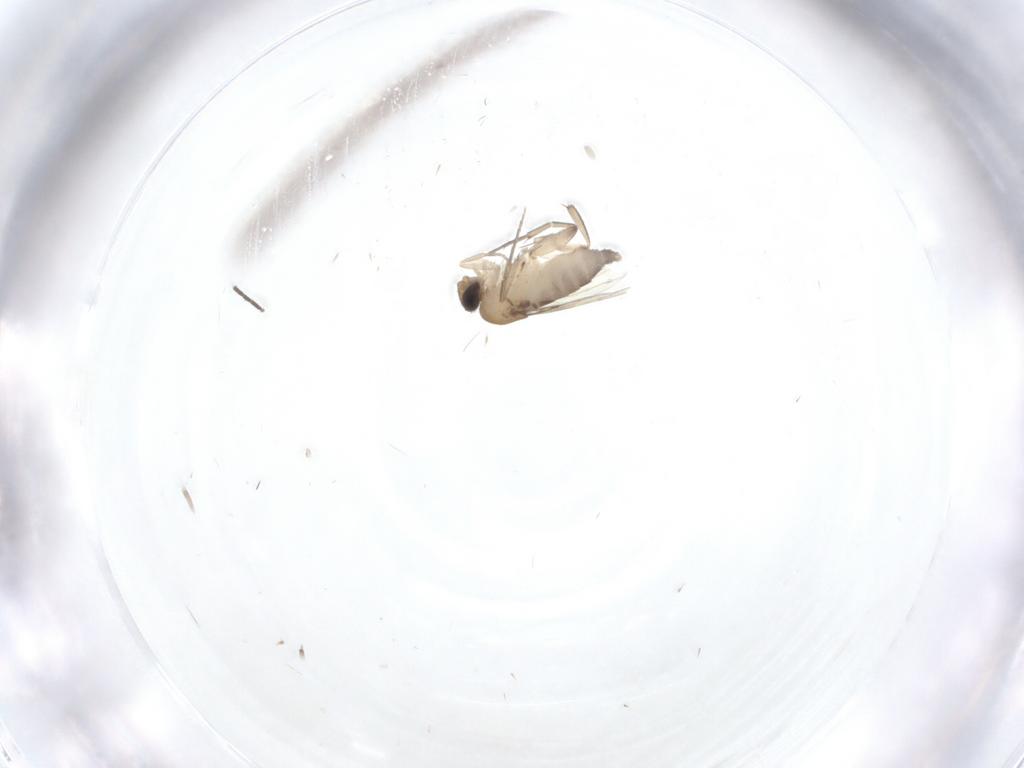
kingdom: Animalia
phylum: Arthropoda
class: Insecta
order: Diptera
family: Phoridae
